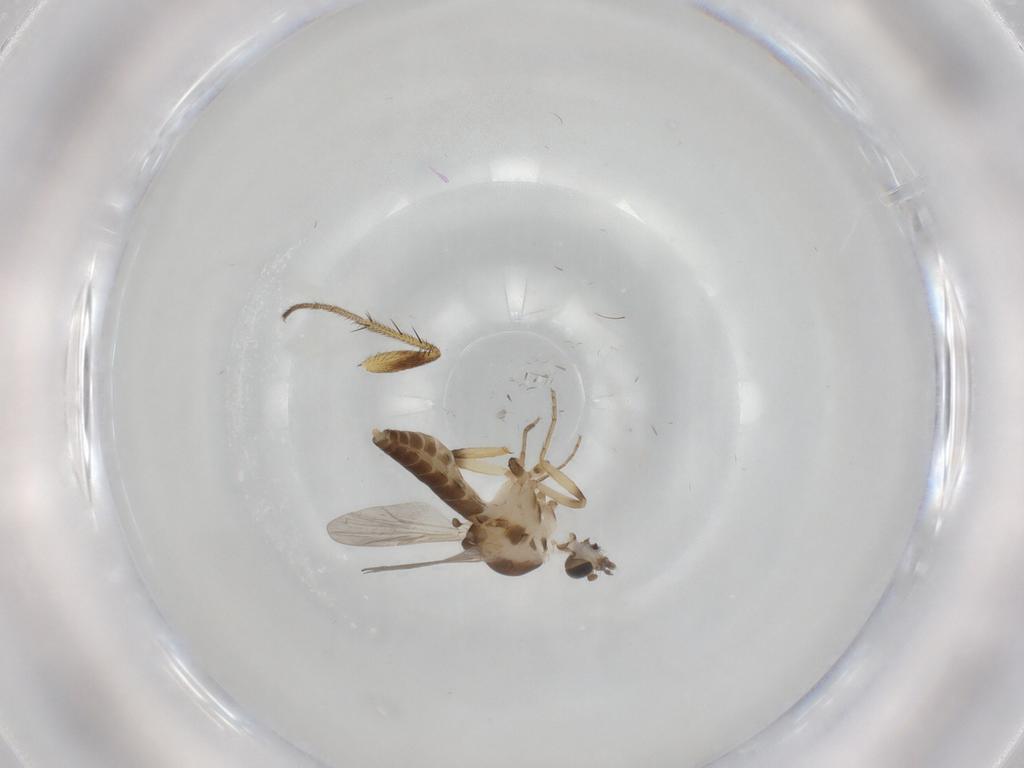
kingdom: Animalia
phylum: Arthropoda
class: Insecta
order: Diptera
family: Ceratopogonidae
